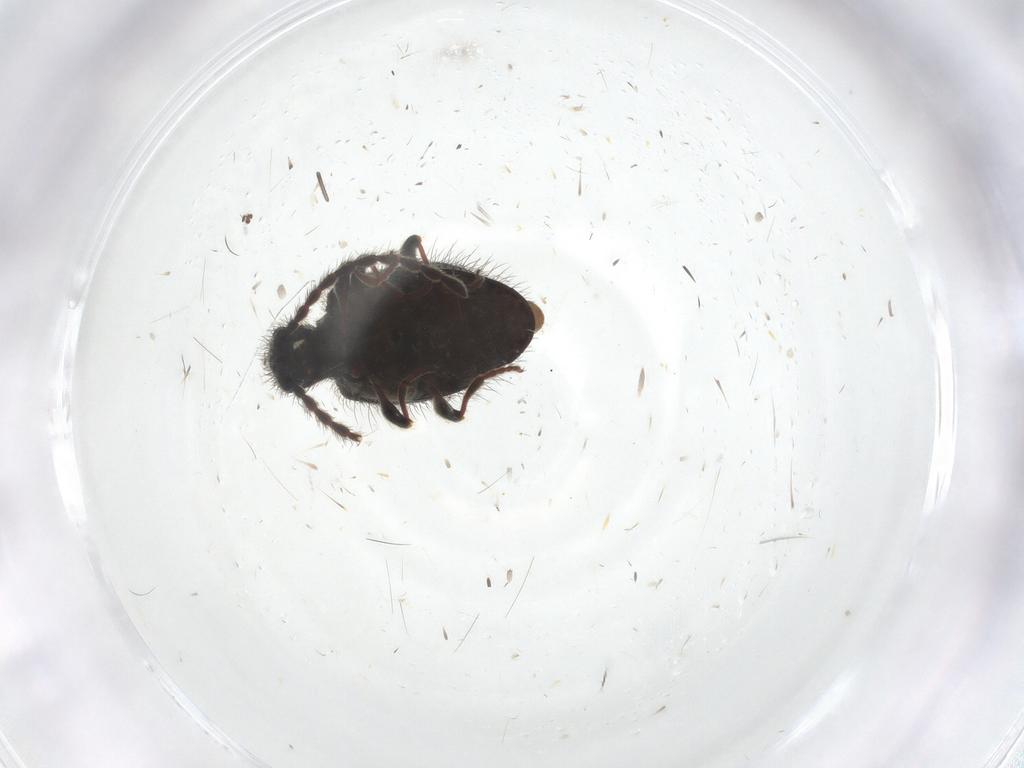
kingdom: Animalia
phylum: Arthropoda
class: Insecta
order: Coleoptera
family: Ptinidae
